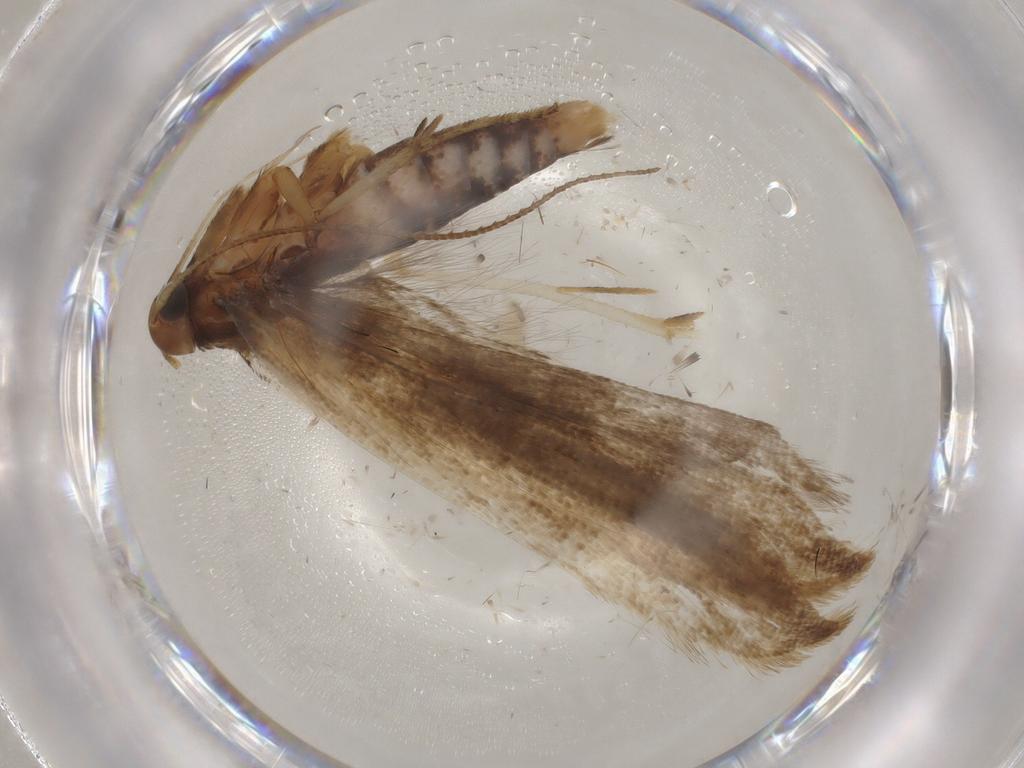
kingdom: Animalia
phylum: Arthropoda
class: Insecta
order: Lepidoptera
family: Gelechiidae
